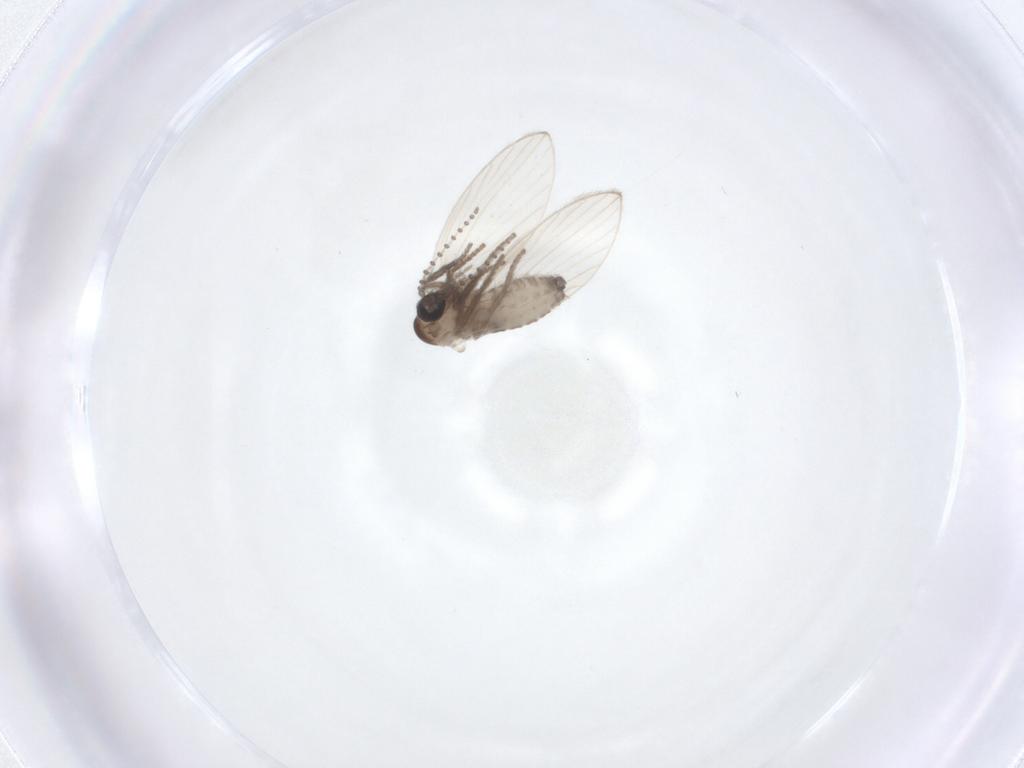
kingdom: Animalia
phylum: Arthropoda
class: Insecta
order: Diptera
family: Psychodidae
